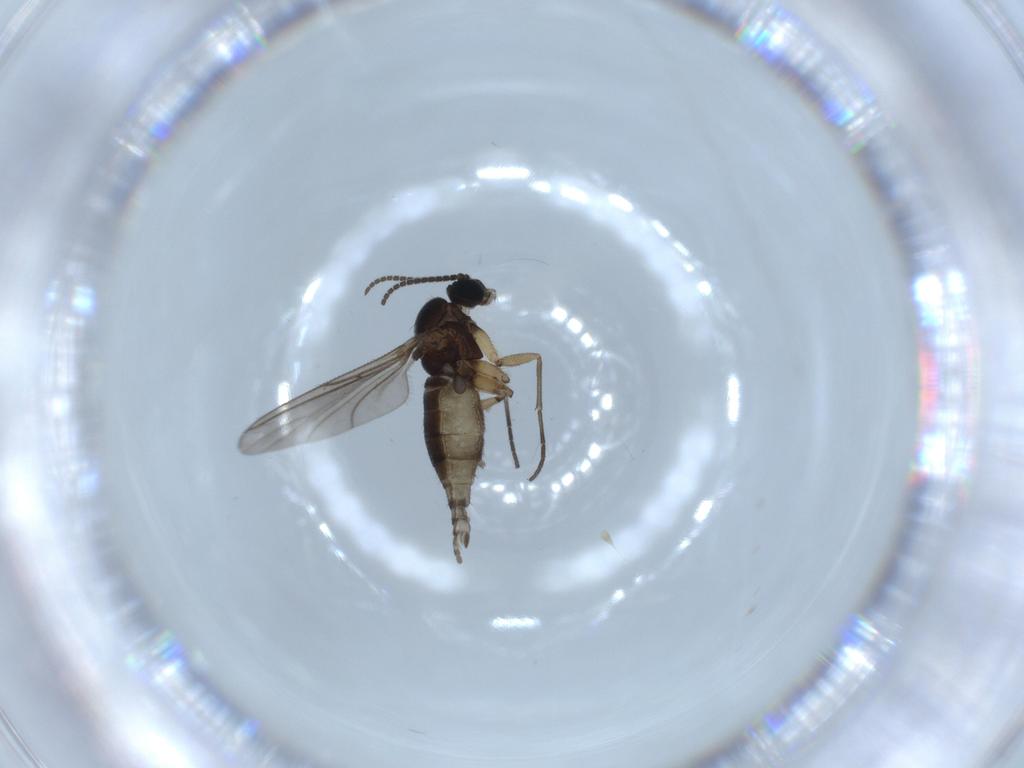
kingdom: Animalia
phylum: Arthropoda
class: Insecta
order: Diptera
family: Sciaridae
